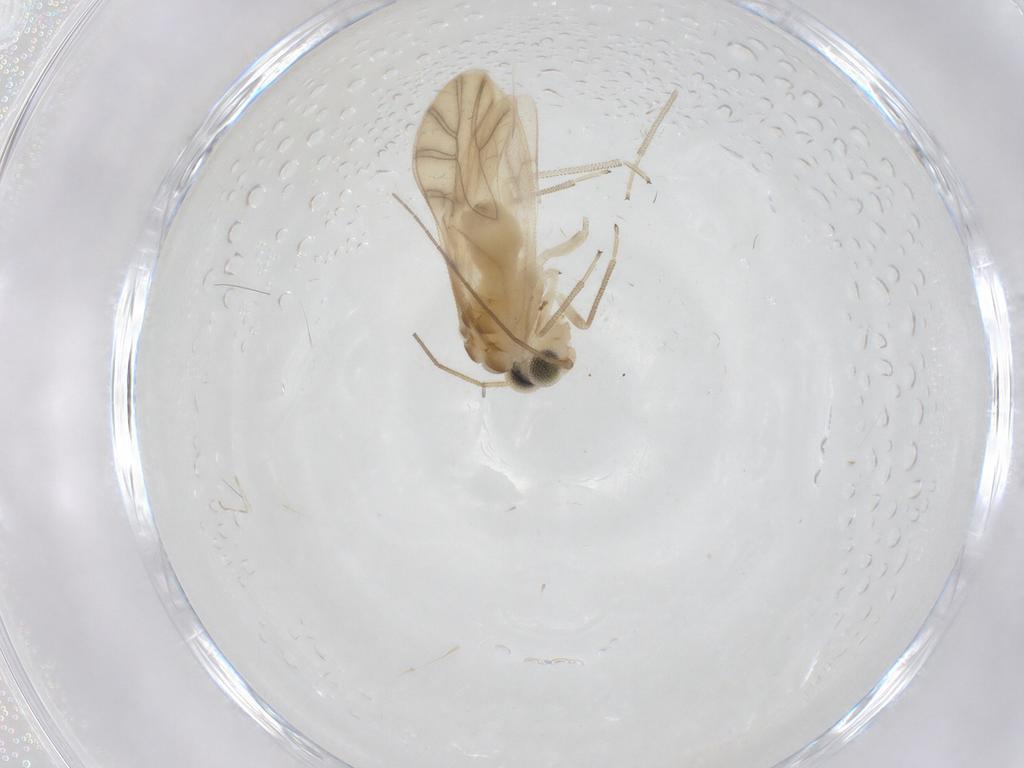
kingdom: Animalia
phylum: Arthropoda
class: Insecta
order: Psocodea
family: Caeciliusidae
